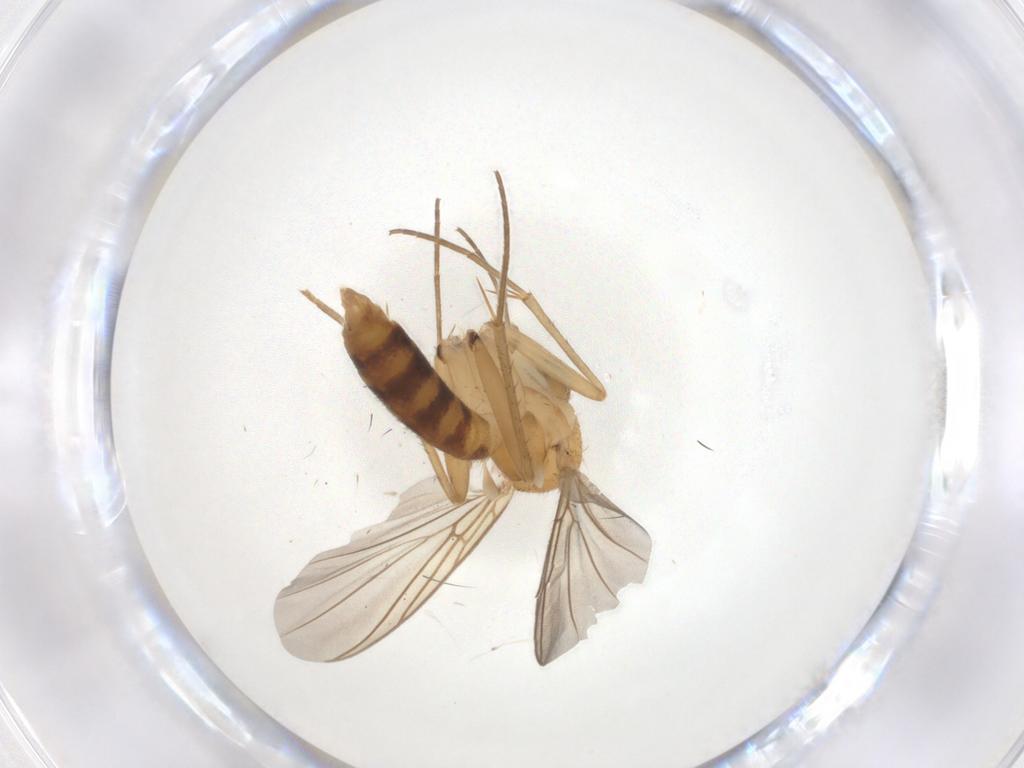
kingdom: Animalia
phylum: Arthropoda
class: Insecta
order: Diptera
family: Mycetophilidae
